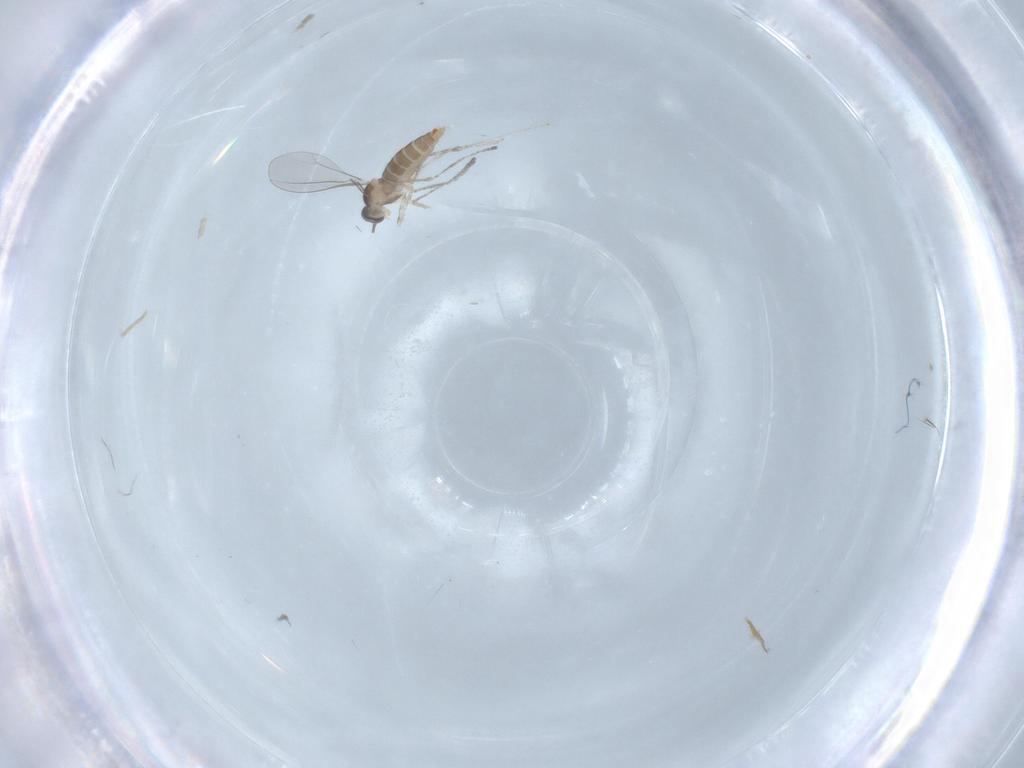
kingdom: Animalia
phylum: Arthropoda
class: Insecta
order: Diptera
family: Cecidomyiidae
